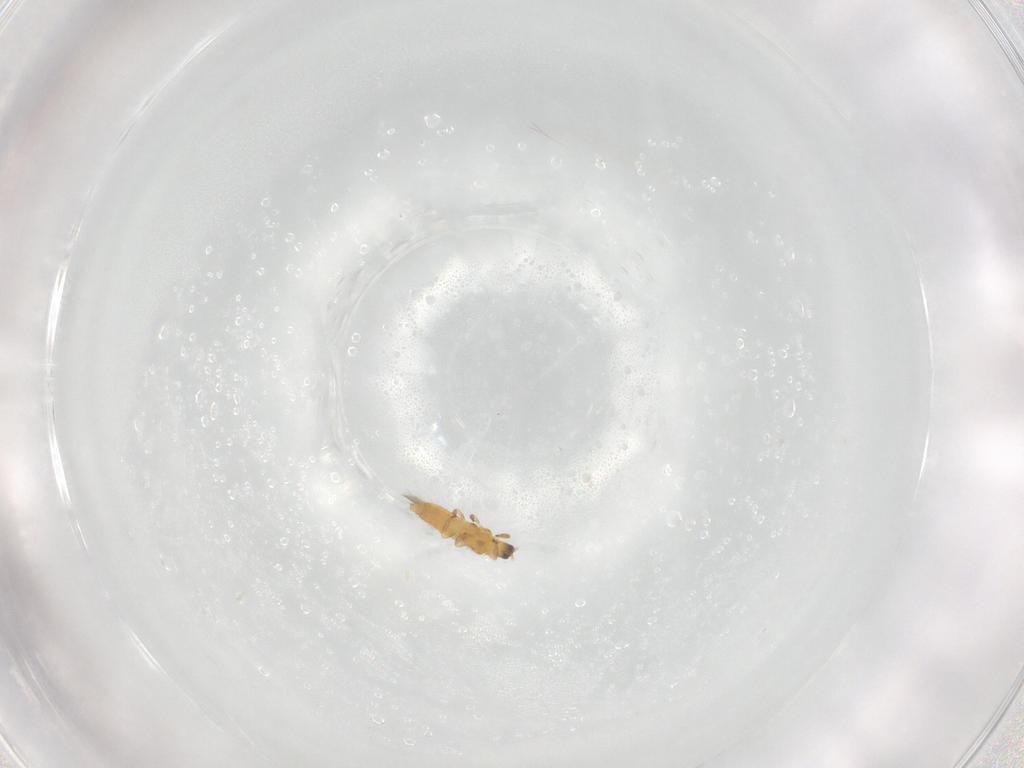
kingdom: Animalia
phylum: Arthropoda
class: Insecta
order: Thysanoptera
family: Thripidae
